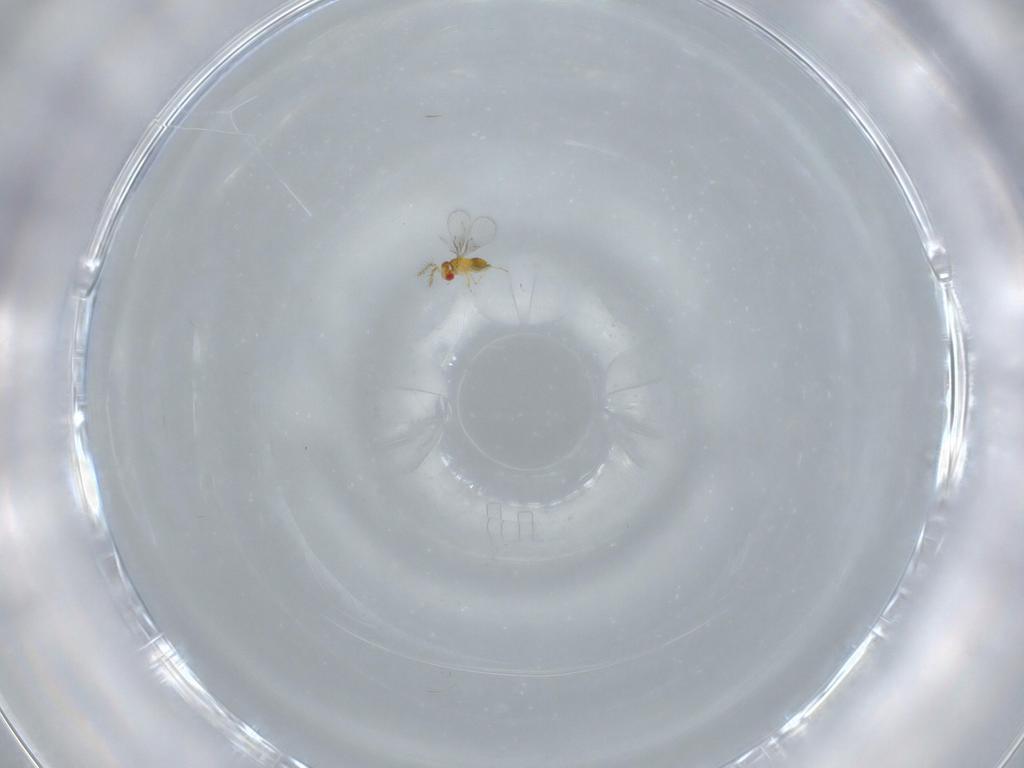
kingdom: Animalia
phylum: Arthropoda
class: Insecta
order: Hymenoptera
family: Trichogrammatidae
